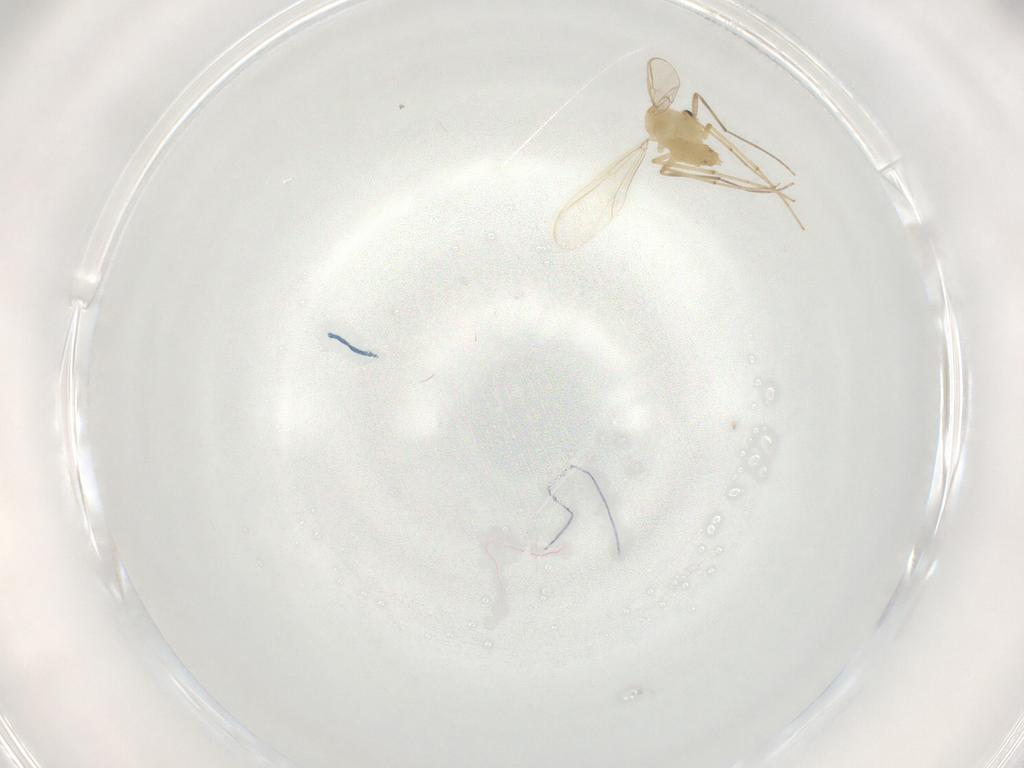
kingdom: Animalia
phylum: Arthropoda
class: Insecta
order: Diptera
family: Chironomidae
